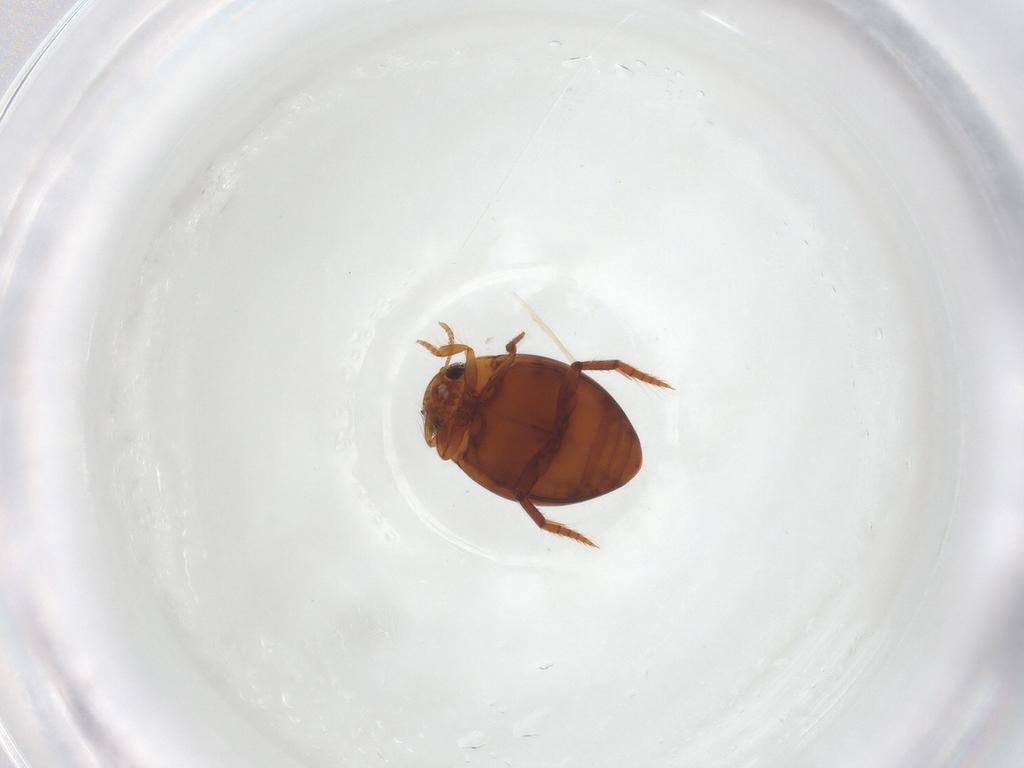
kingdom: Animalia
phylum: Arthropoda
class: Insecta
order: Coleoptera
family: Dytiscidae
